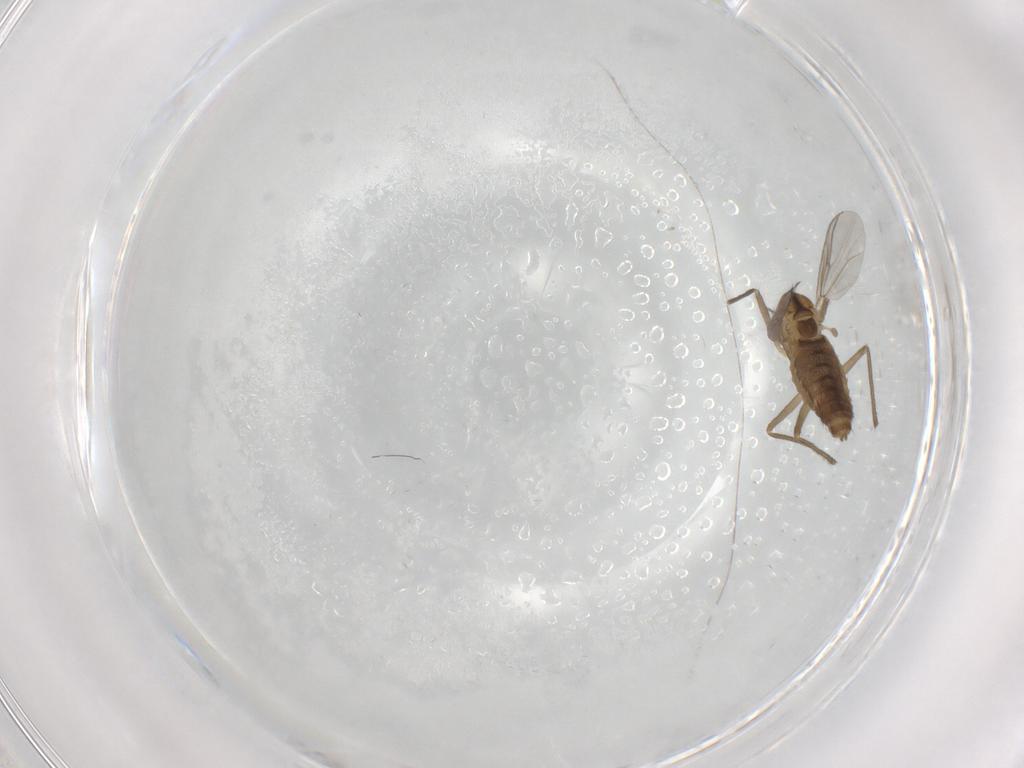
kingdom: Animalia
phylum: Arthropoda
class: Insecta
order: Diptera
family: Chironomidae
